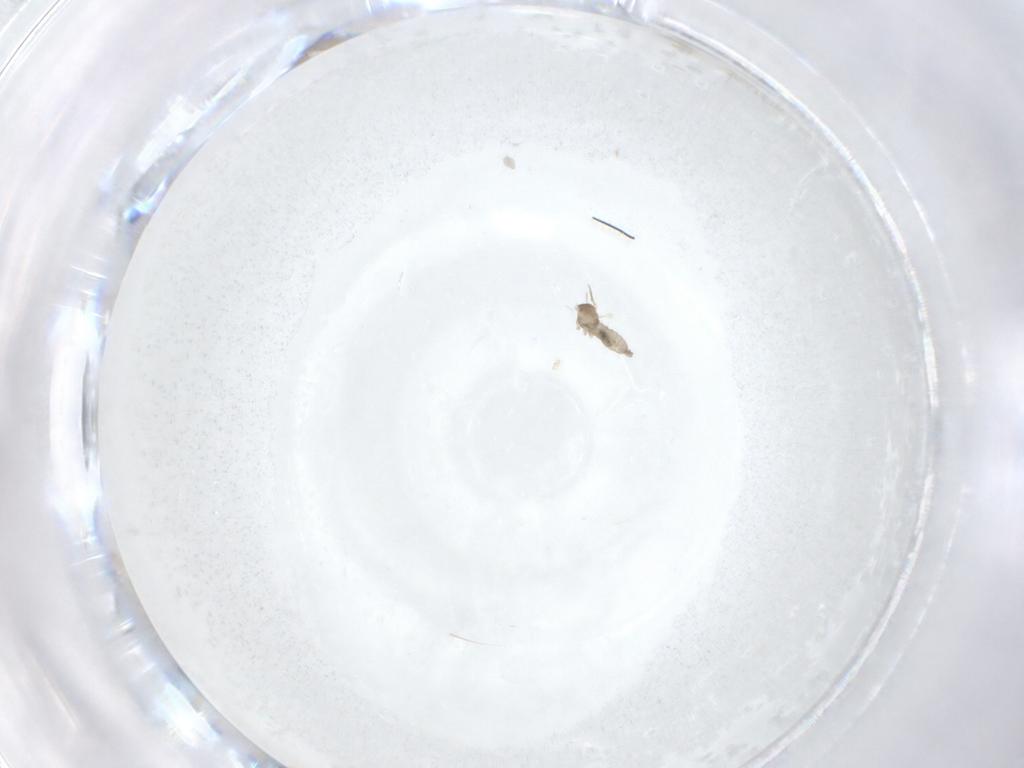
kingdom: Animalia
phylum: Arthropoda
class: Insecta
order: Diptera
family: Cecidomyiidae
